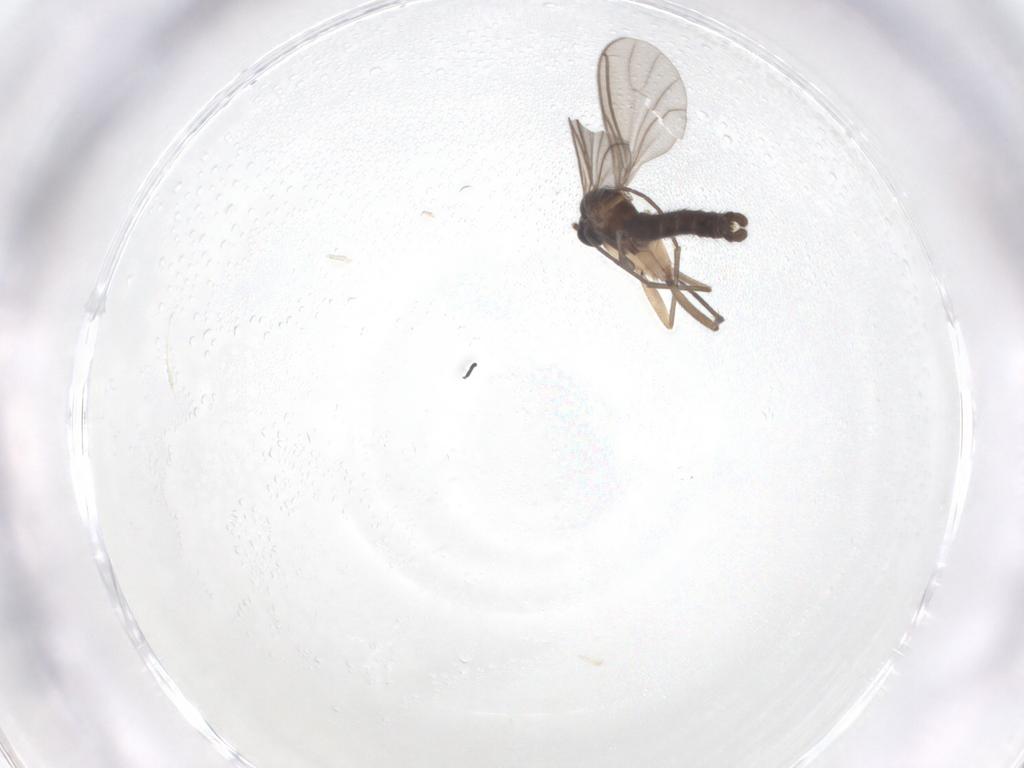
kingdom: Animalia
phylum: Arthropoda
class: Insecta
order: Diptera
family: Sciaridae
